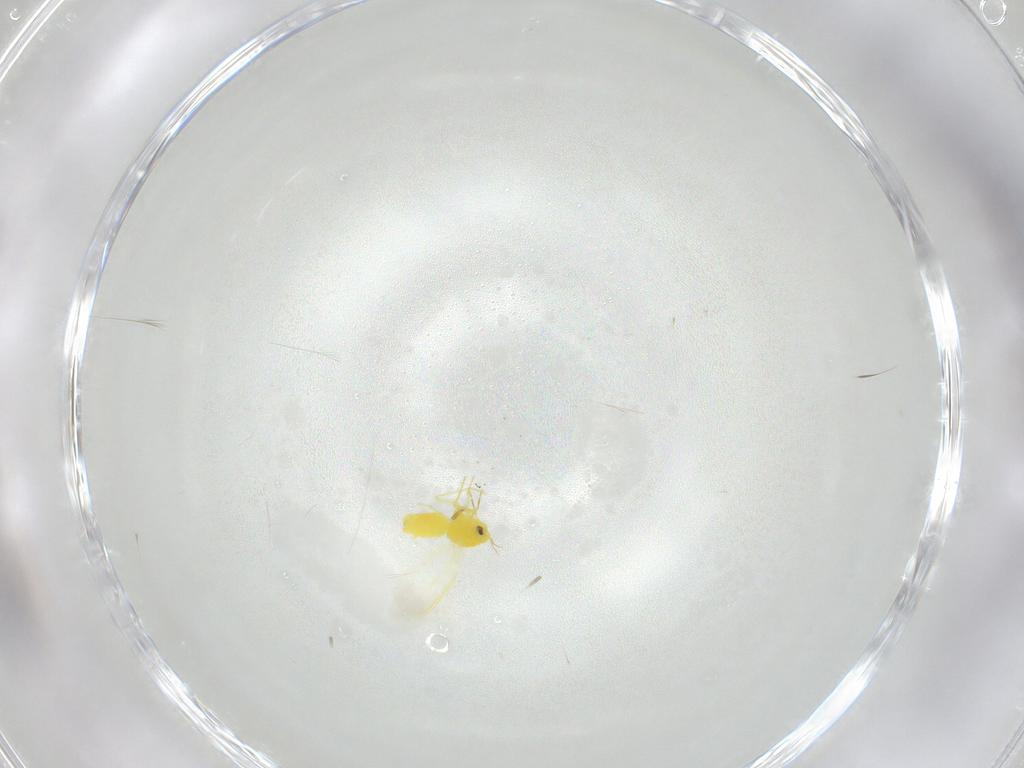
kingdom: Animalia
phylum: Arthropoda
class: Insecta
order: Hemiptera
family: Aleyrodidae
